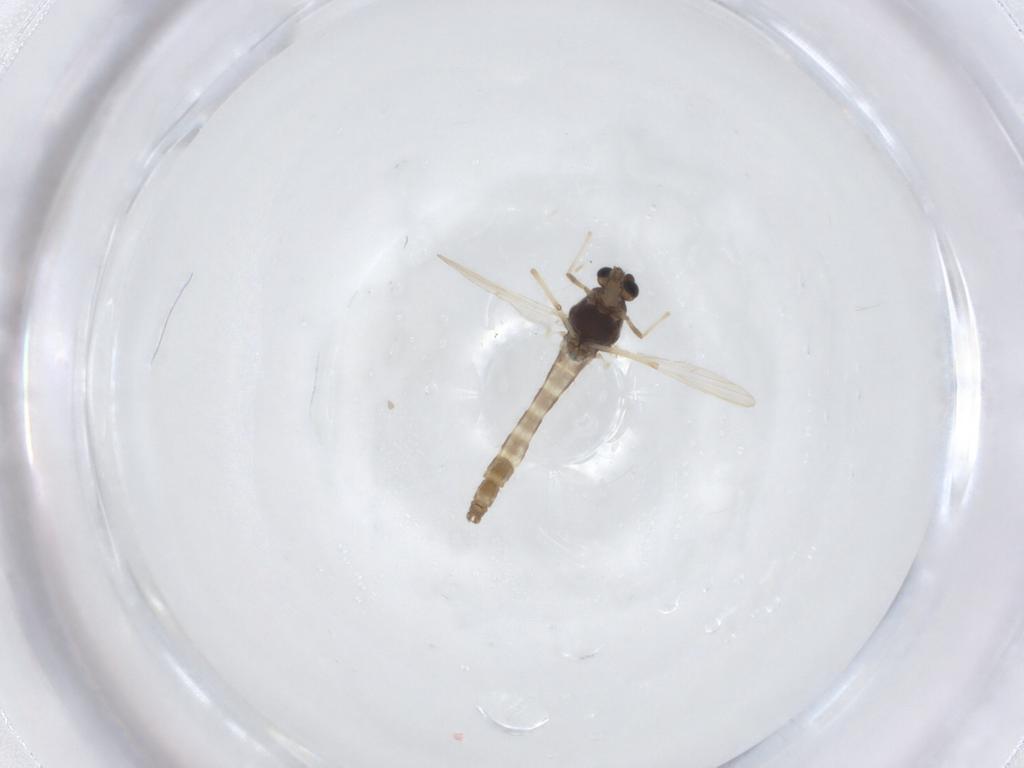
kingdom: Animalia
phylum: Arthropoda
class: Insecta
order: Diptera
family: Chironomidae
